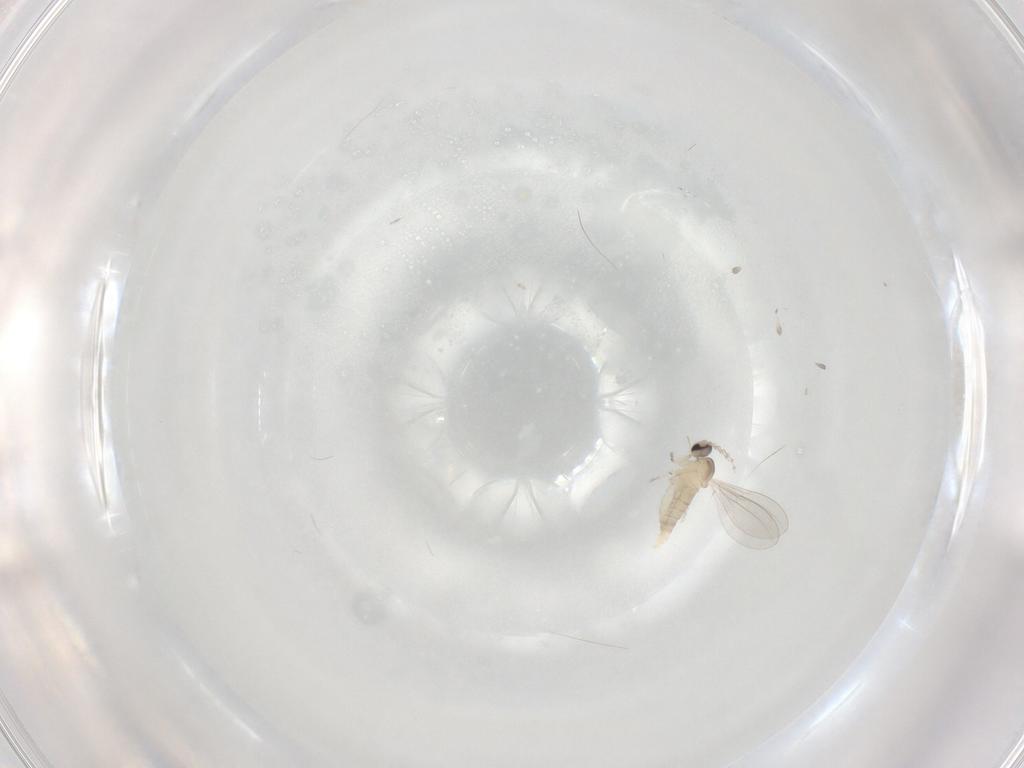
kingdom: Animalia
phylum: Arthropoda
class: Insecta
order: Diptera
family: Cecidomyiidae
